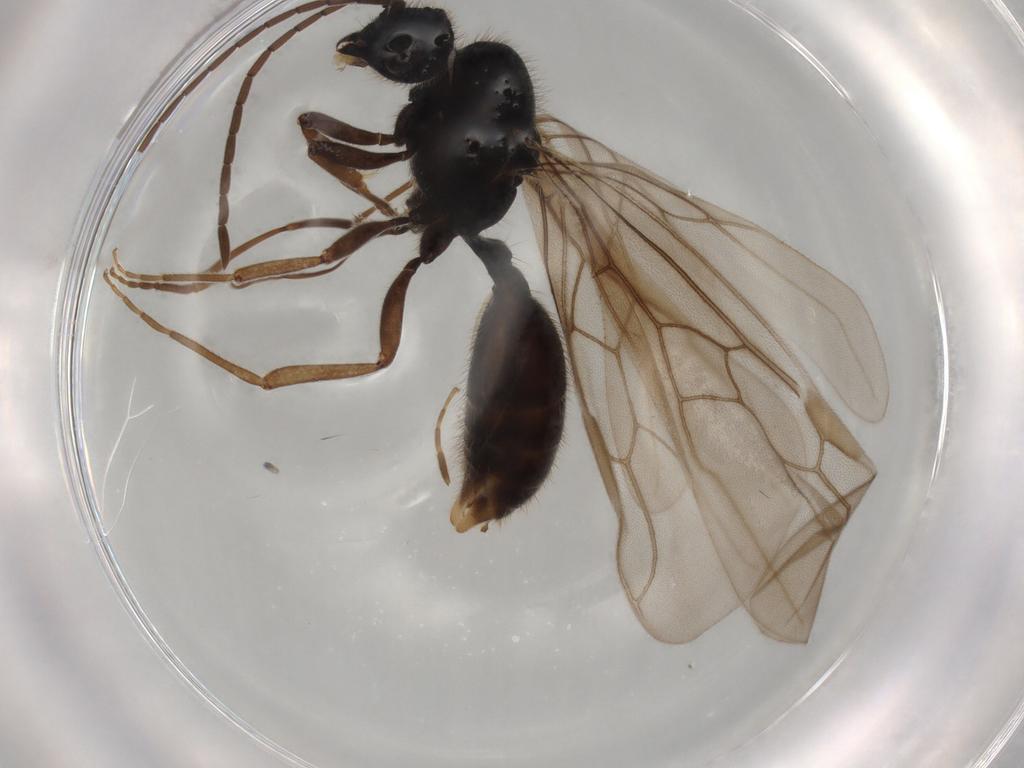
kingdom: Animalia
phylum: Arthropoda
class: Insecta
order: Hymenoptera
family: Formicidae
